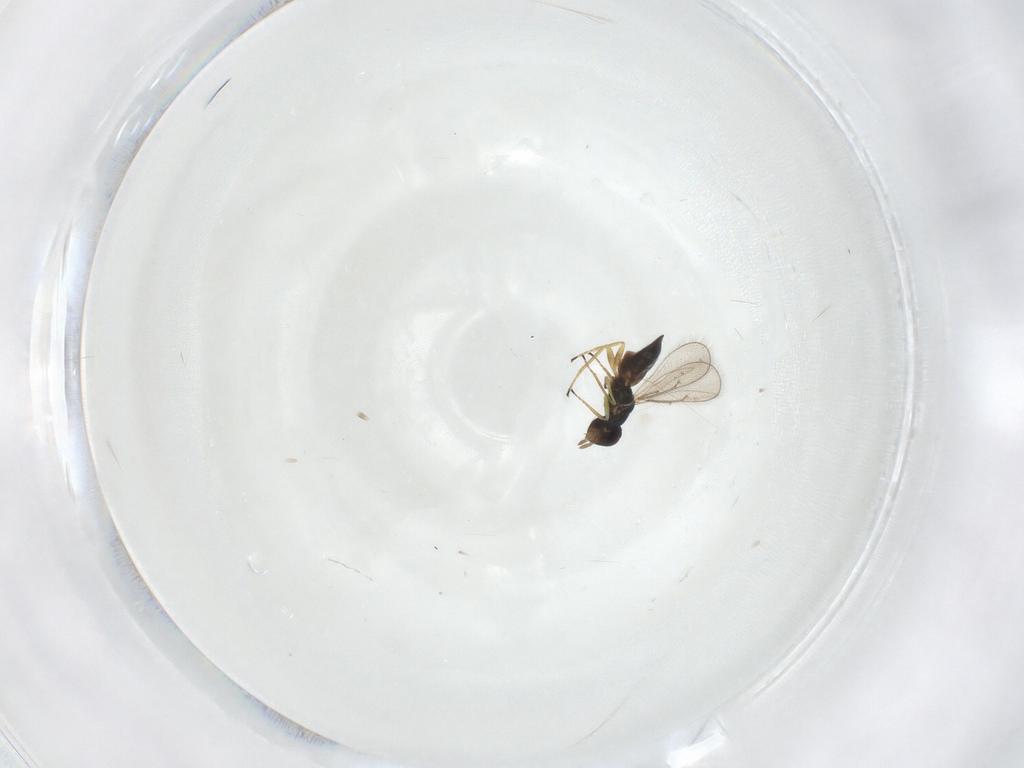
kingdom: Animalia
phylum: Arthropoda
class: Insecta
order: Hymenoptera
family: Eulophidae
